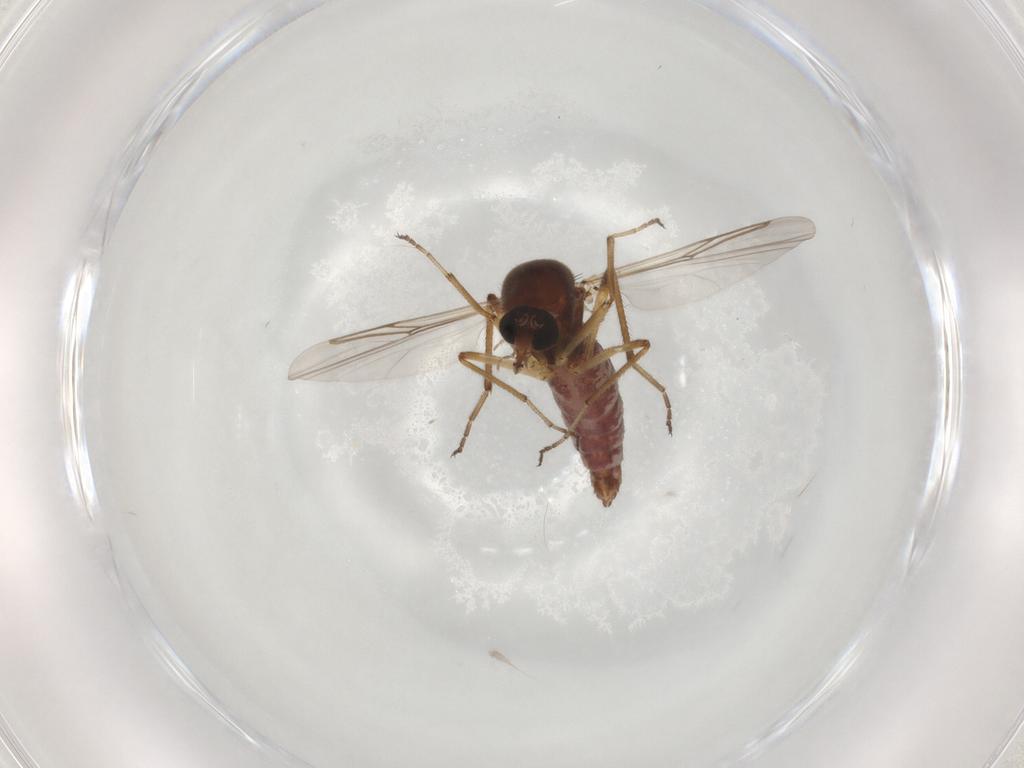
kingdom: Animalia
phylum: Arthropoda
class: Insecta
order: Diptera
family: Ceratopogonidae
